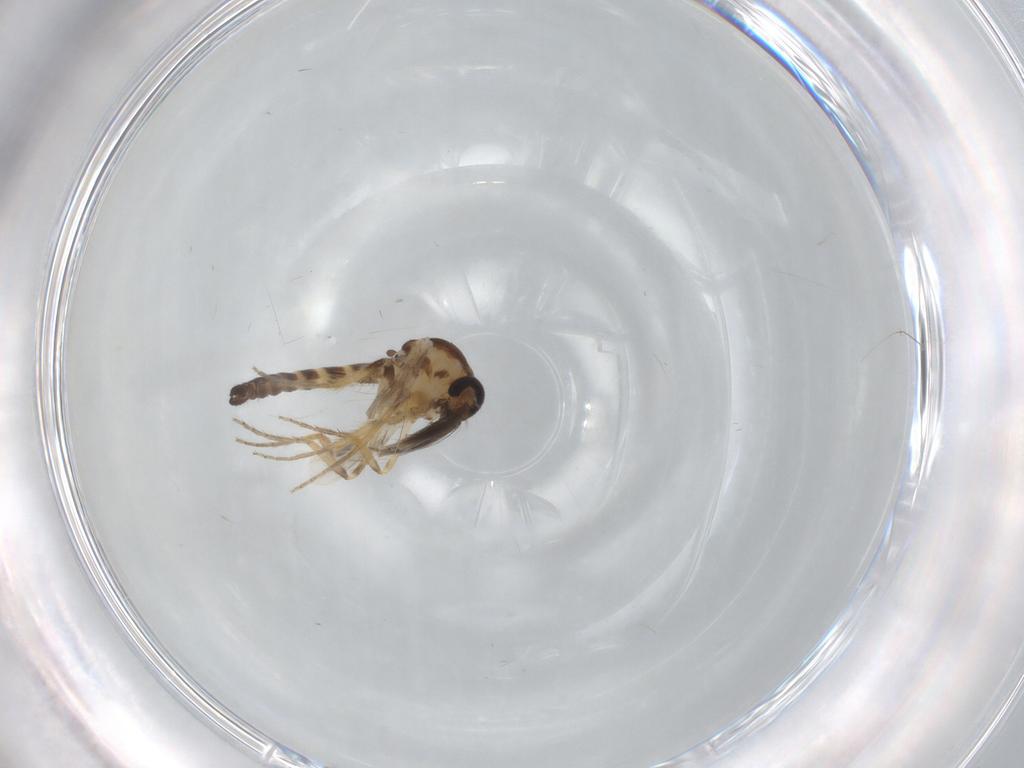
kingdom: Animalia
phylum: Arthropoda
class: Insecta
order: Diptera
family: Ceratopogonidae
